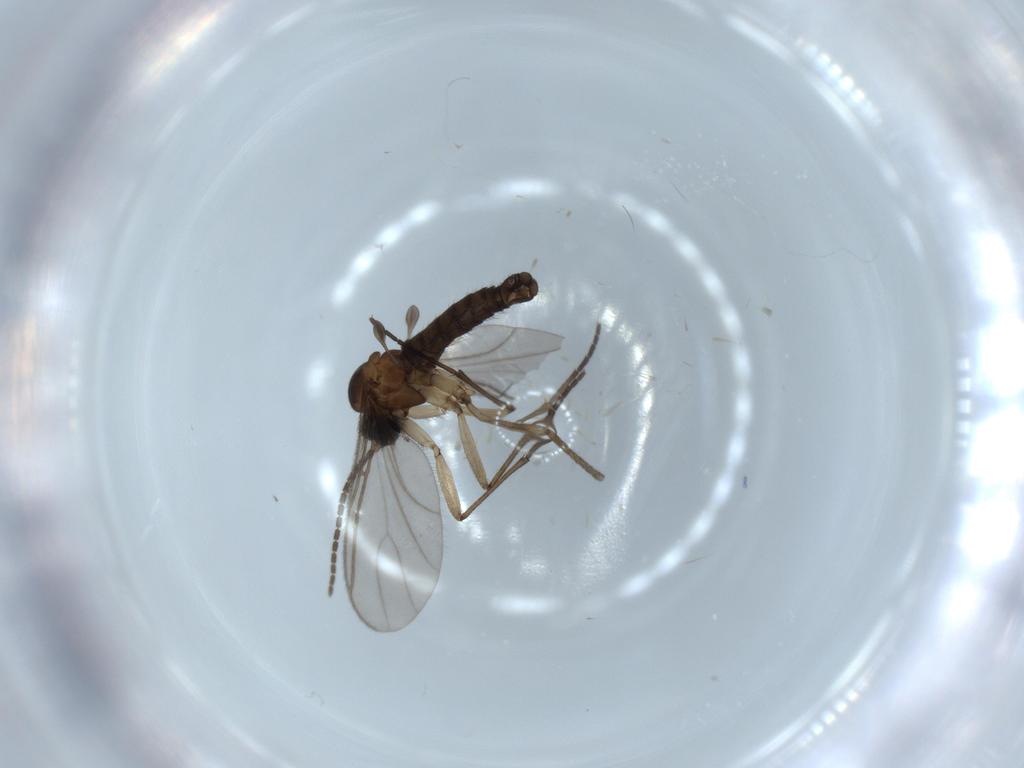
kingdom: Animalia
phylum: Arthropoda
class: Insecta
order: Diptera
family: Sciaridae
